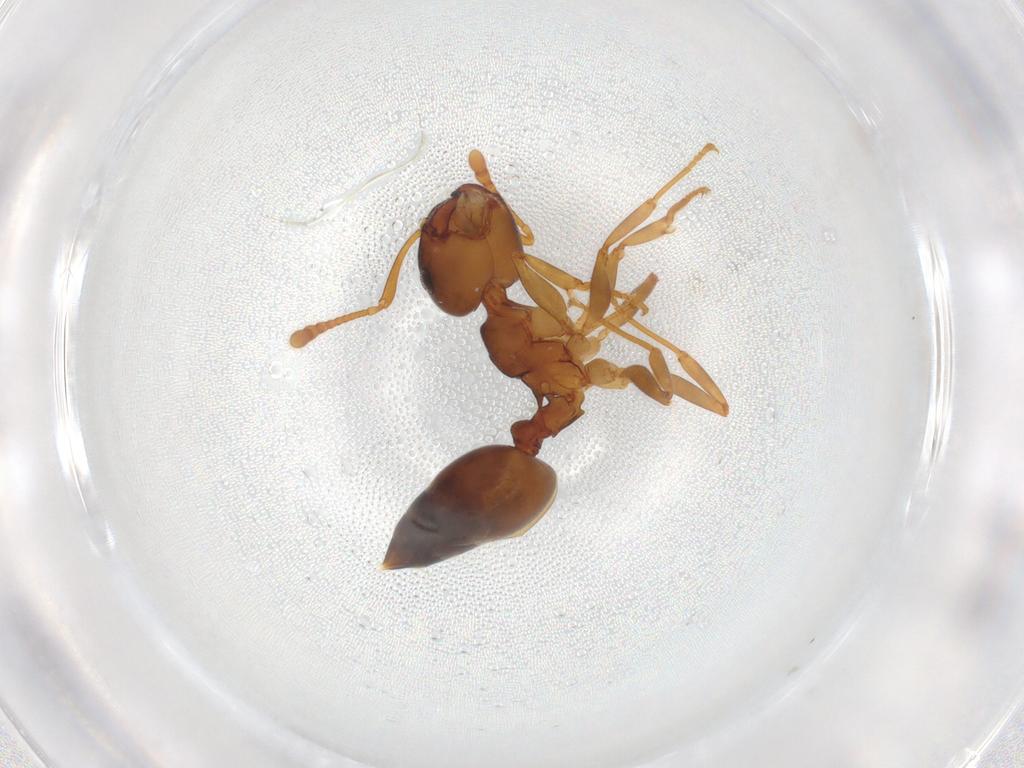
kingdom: Animalia
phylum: Arthropoda
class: Insecta
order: Hymenoptera
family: Formicidae
